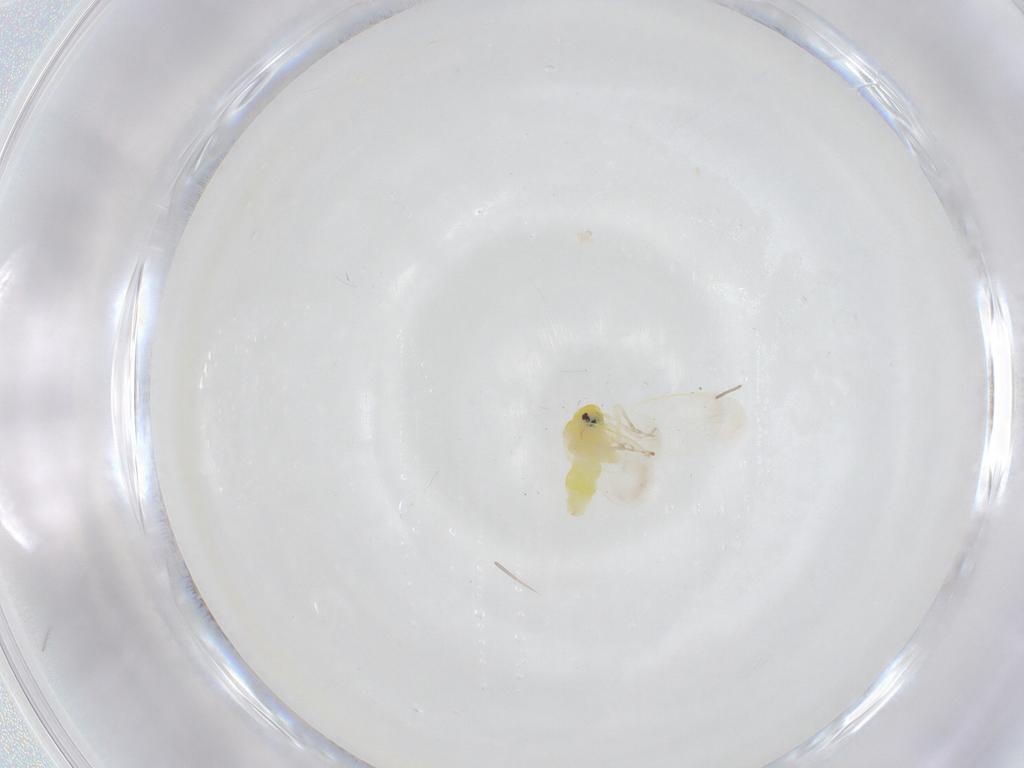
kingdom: Animalia
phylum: Arthropoda
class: Insecta
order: Hemiptera
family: Aleyrodidae
